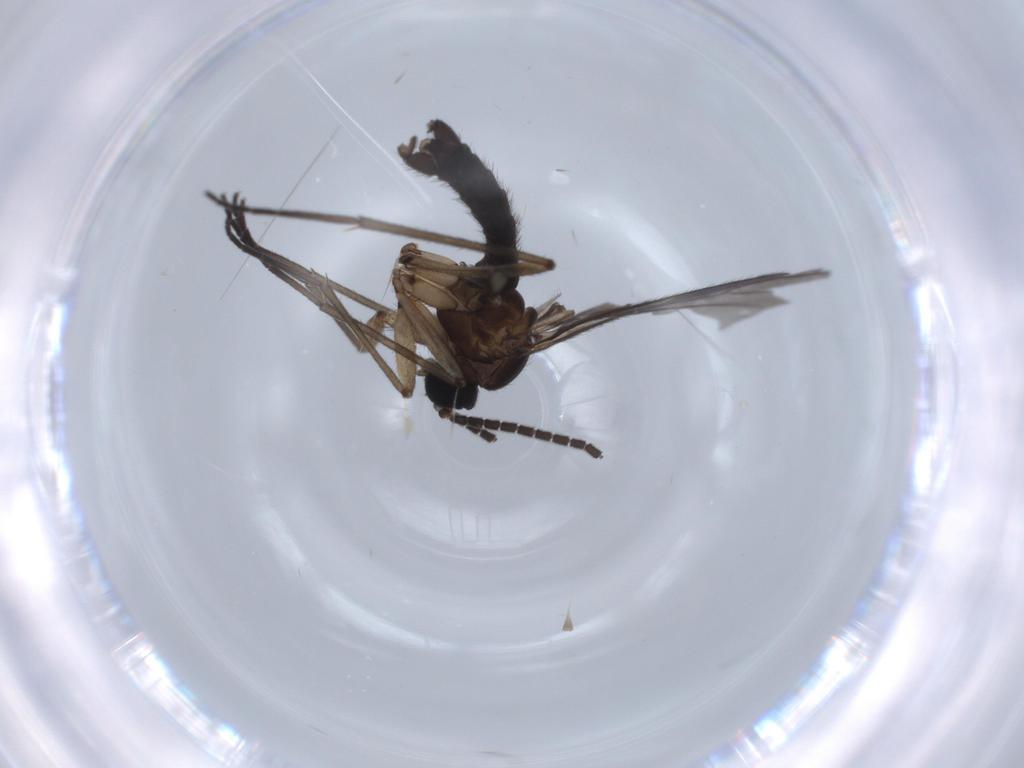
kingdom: Animalia
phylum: Arthropoda
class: Insecta
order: Diptera
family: Sciaridae
